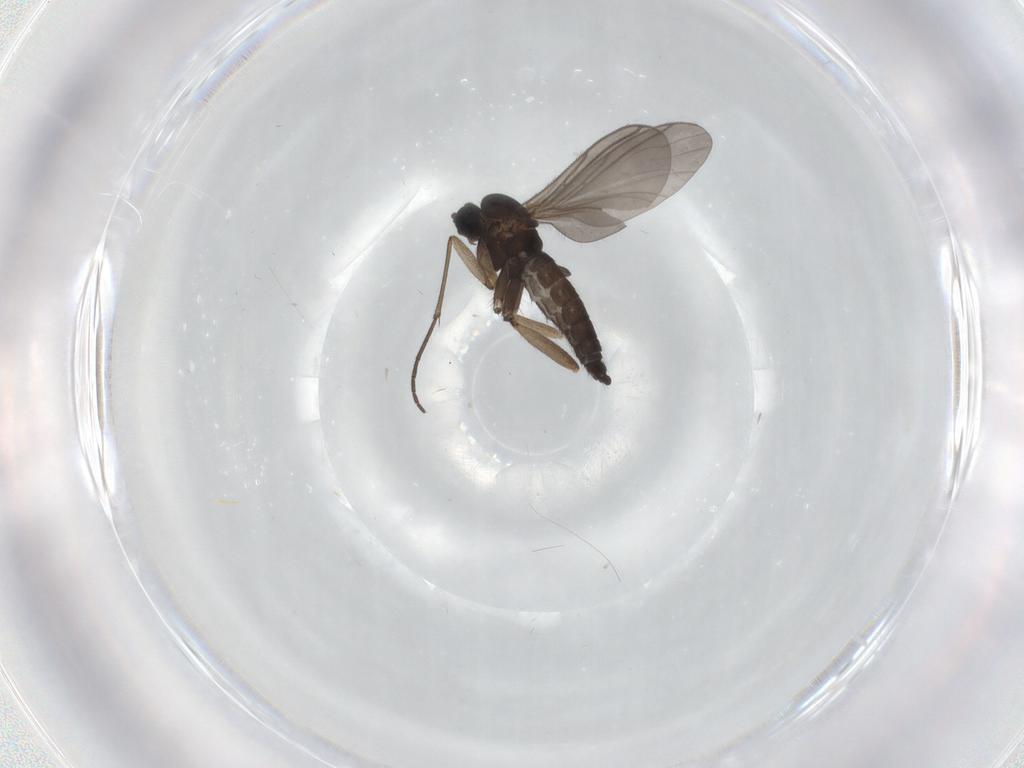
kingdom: Animalia
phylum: Arthropoda
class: Insecta
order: Diptera
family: Sciaridae
